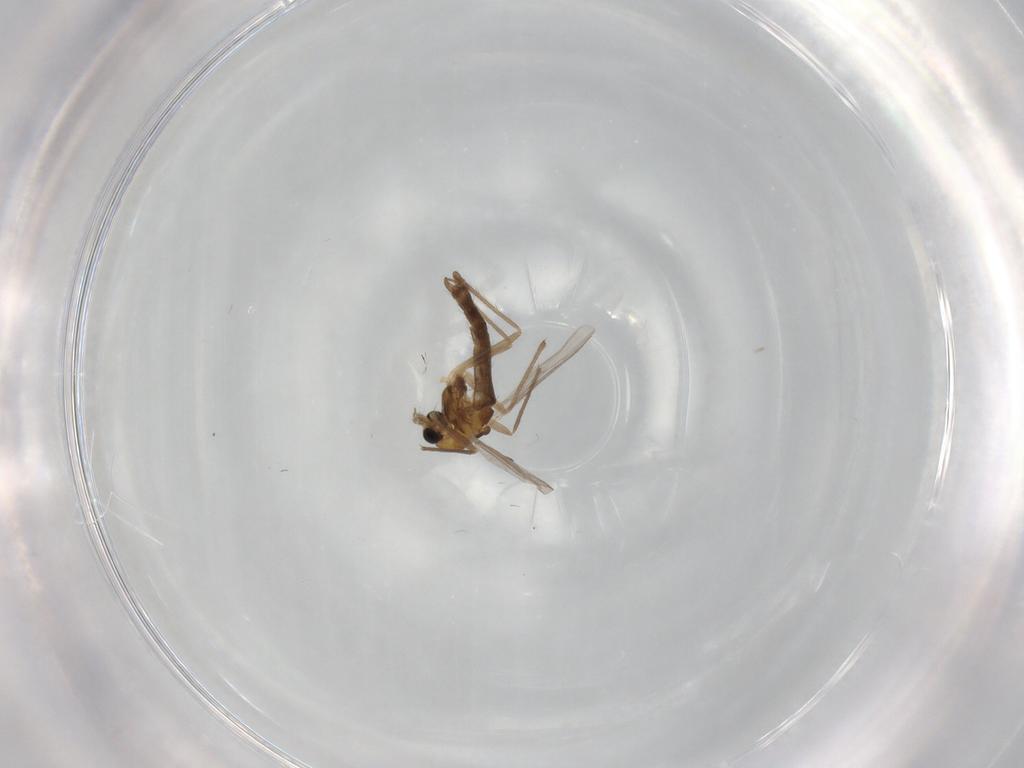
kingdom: Animalia
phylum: Arthropoda
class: Insecta
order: Diptera
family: Chironomidae
